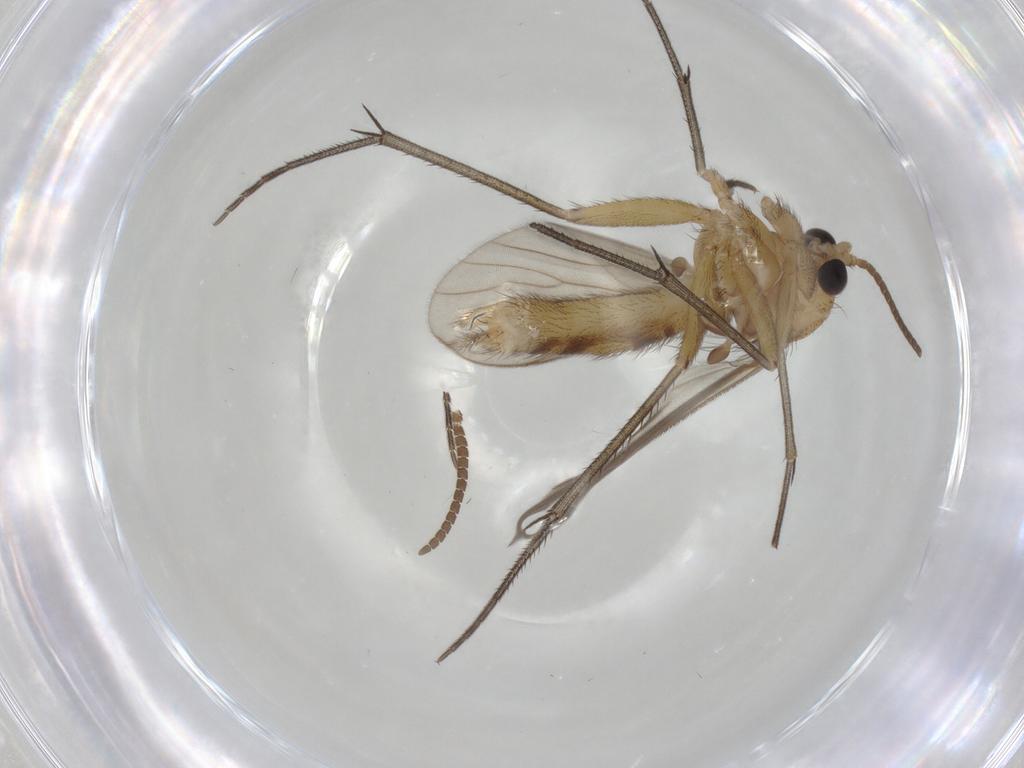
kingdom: Animalia
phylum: Arthropoda
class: Insecta
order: Diptera
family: Mycetophilidae
